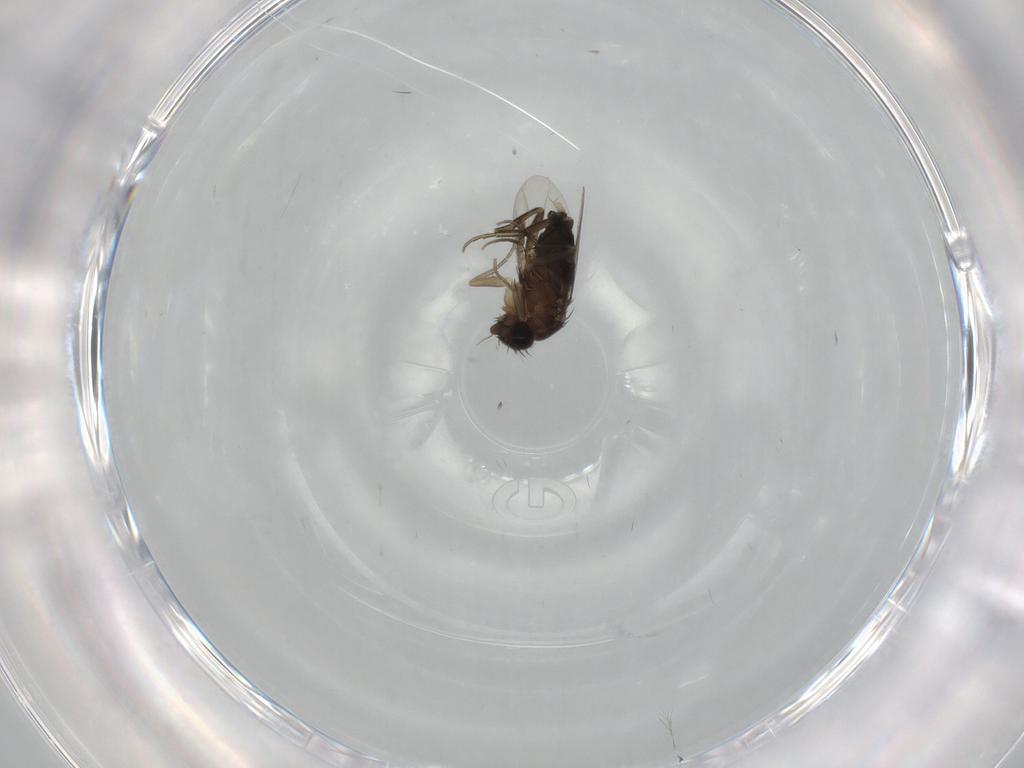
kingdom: Animalia
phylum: Arthropoda
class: Insecta
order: Diptera
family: Phoridae
